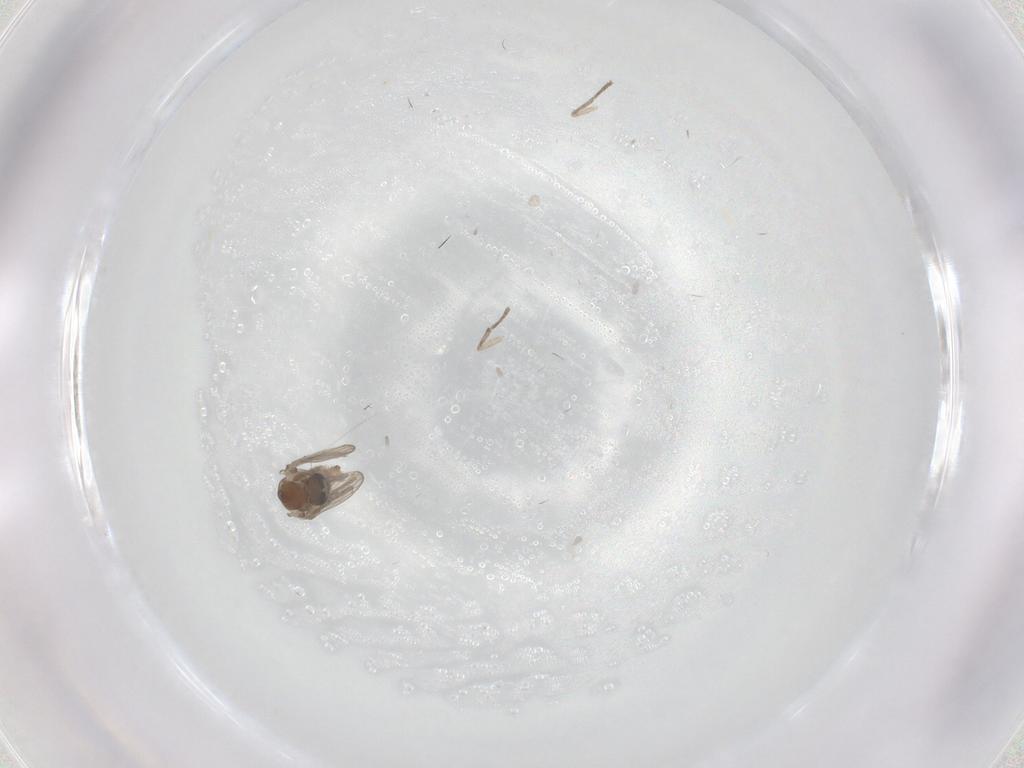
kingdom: Animalia
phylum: Arthropoda
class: Insecta
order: Diptera
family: Psychodidae
